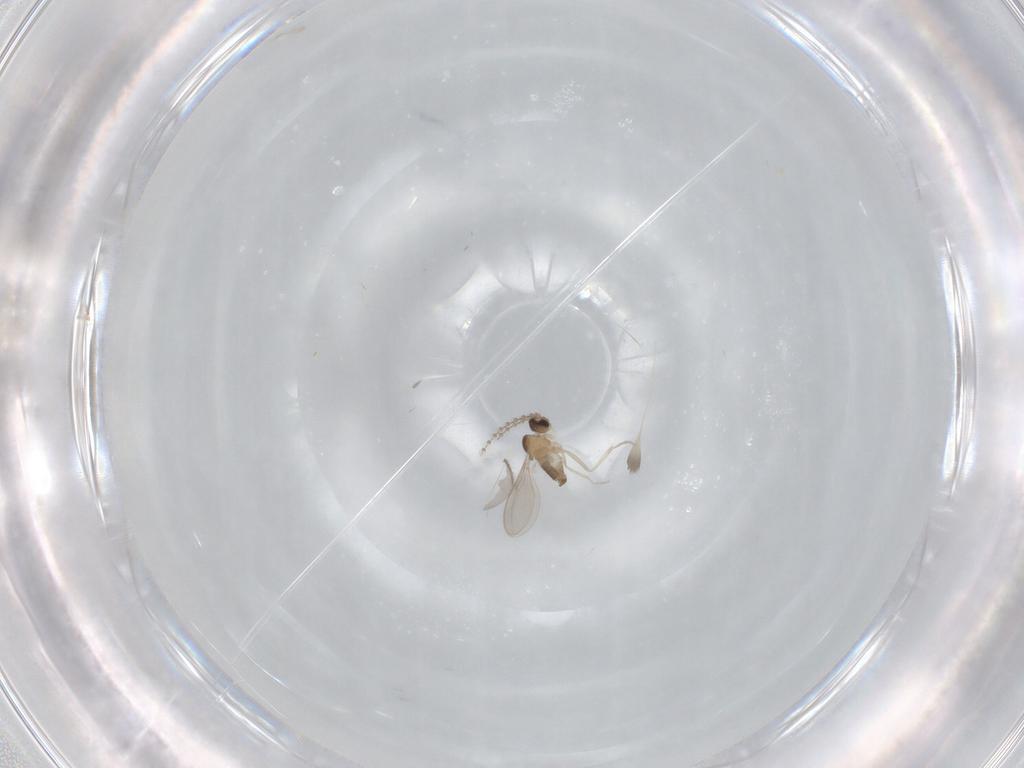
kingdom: Animalia
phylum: Arthropoda
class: Insecta
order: Diptera
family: Cecidomyiidae
